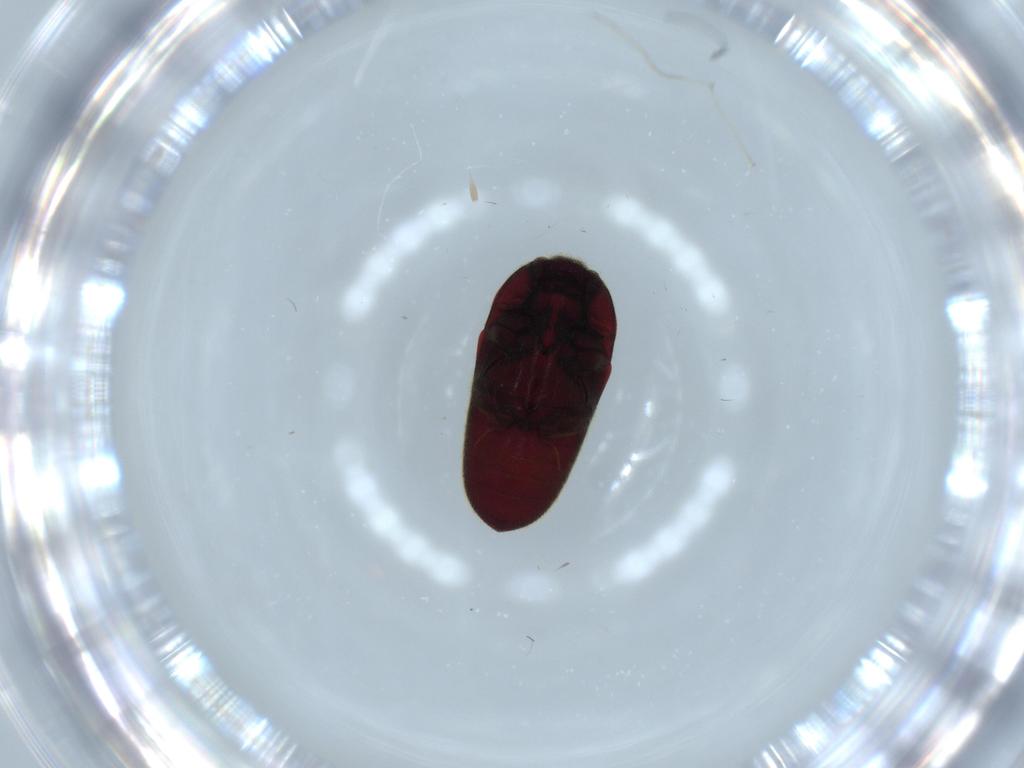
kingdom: Animalia
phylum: Arthropoda
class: Insecta
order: Coleoptera
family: Throscidae
